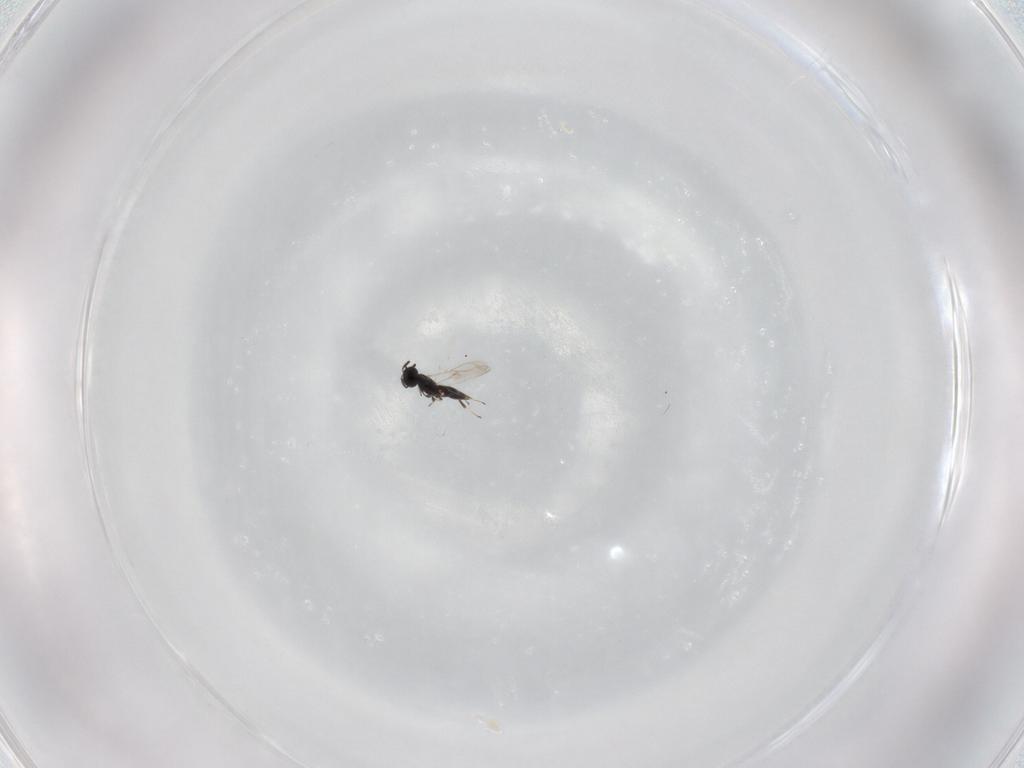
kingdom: Animalia
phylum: Arthropoda
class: Insecta
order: Hymenoptera
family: Scelionidae
